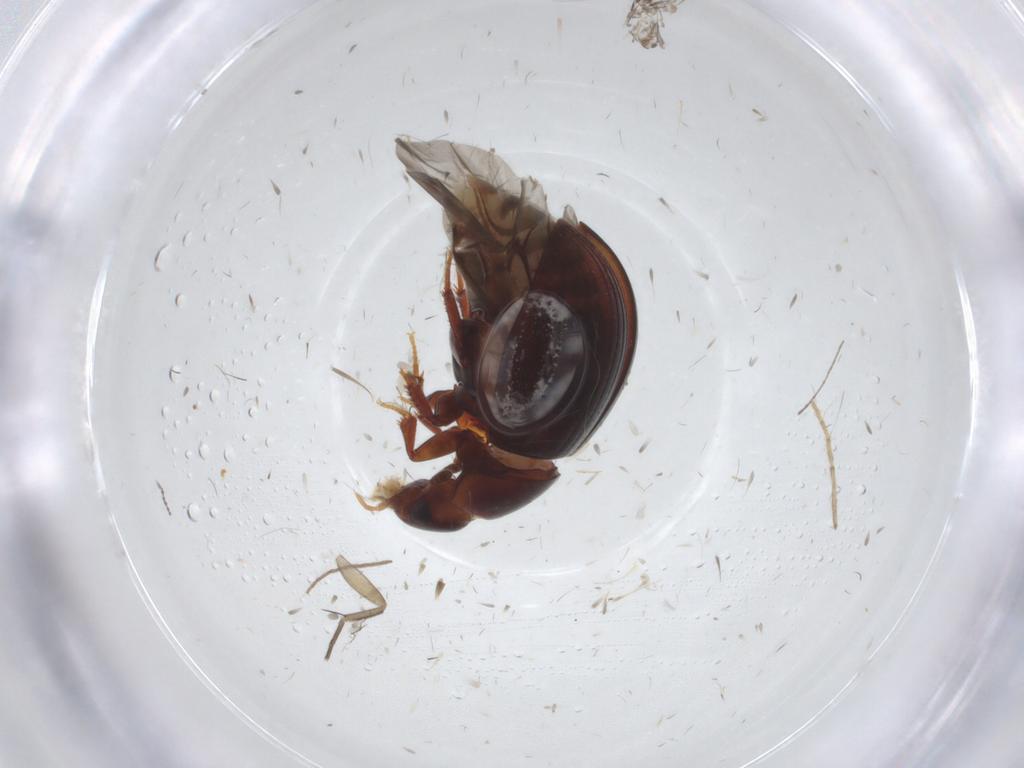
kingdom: Animalia
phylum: Arthropoda
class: Insecta
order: Coleoptera
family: Hydrophilidae
